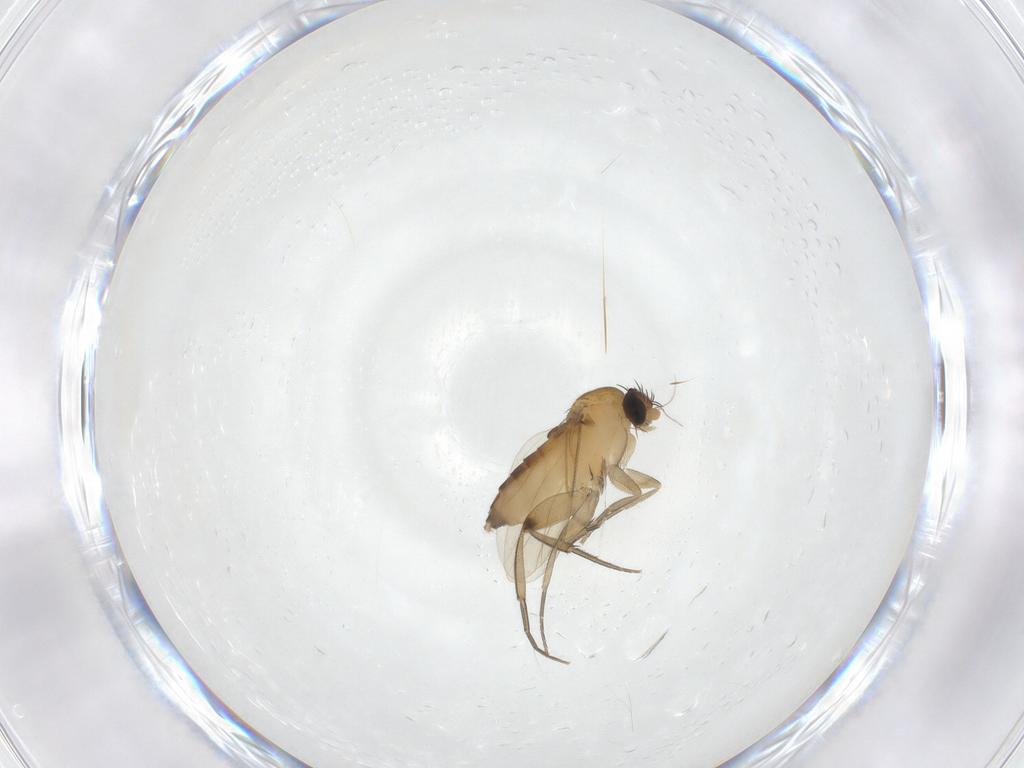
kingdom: Animalia
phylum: Arthropoda
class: Insecta
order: Diptera
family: Phoridae
